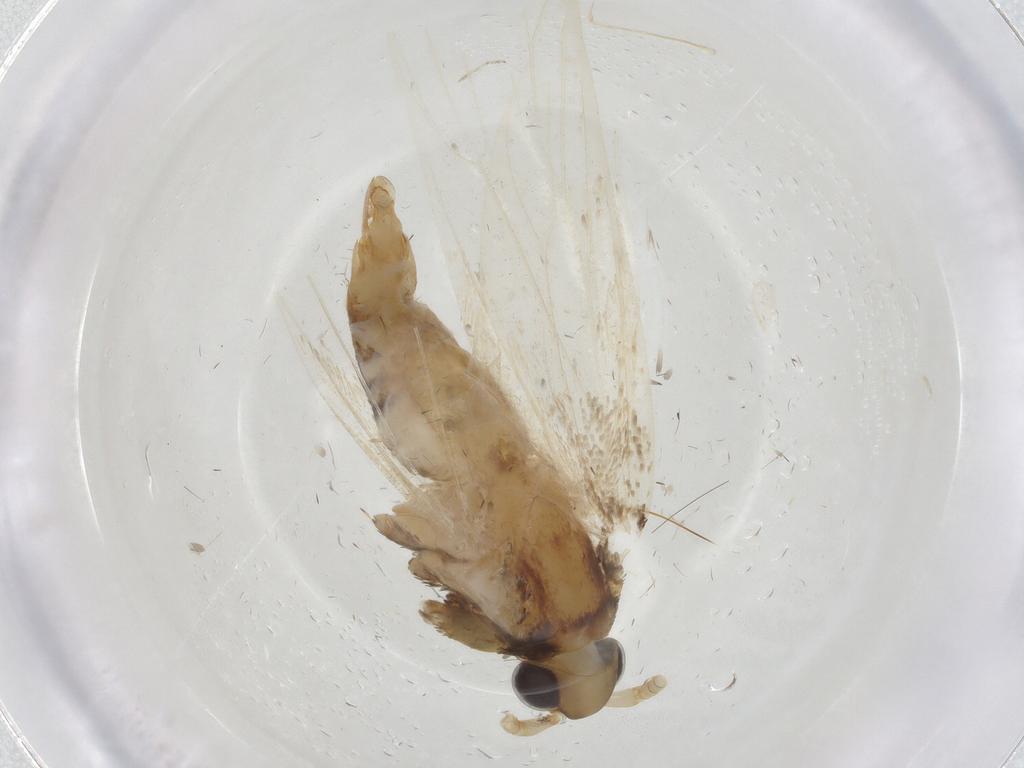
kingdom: Animalia
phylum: Arthropoda
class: Insecta
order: Lepidoptera
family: Lecithoceridae
